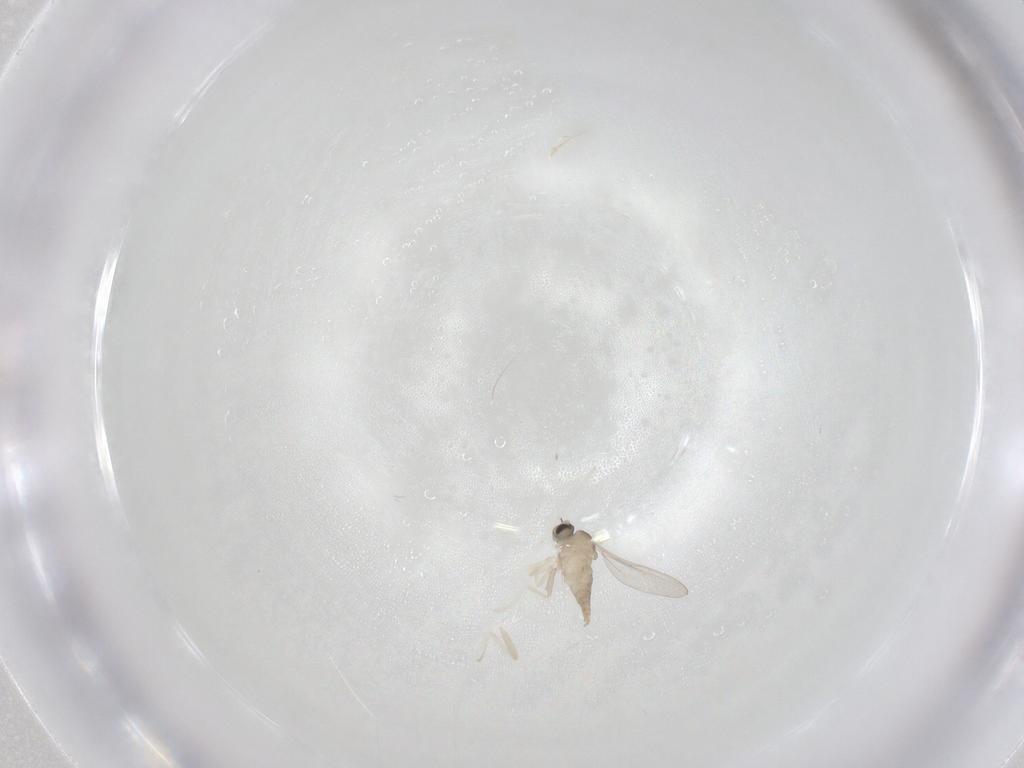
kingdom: Animalia
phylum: Arthropoda
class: Insecta
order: Diptera
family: Cecidomyiidae
